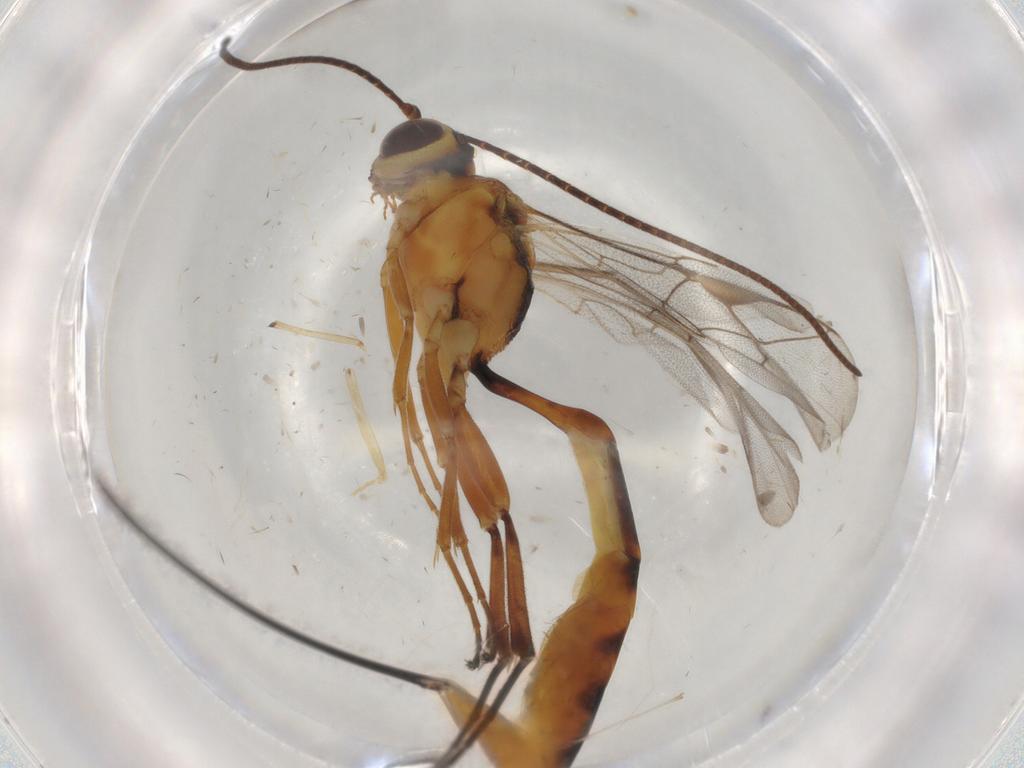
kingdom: Animalia
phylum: Arthropoda
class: Insecta
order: Hymenoptera
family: Ichneumonidae
